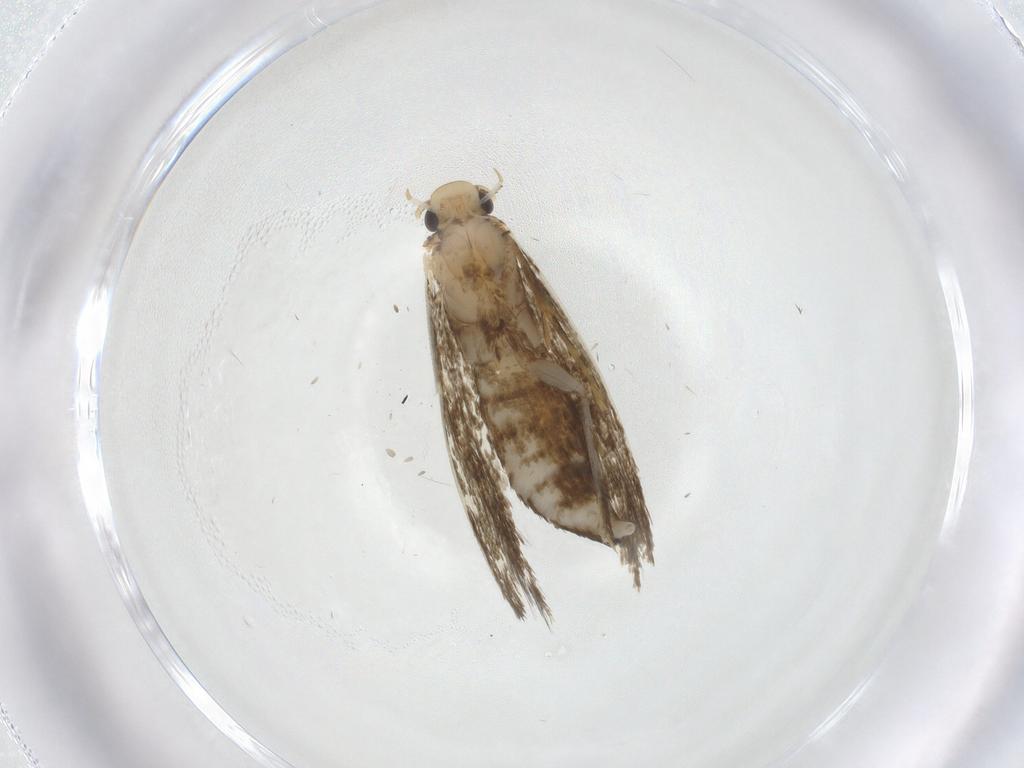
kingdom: Animalia
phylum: Arthropoda
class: Insecta
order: Lepidoptera
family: Tineidae
